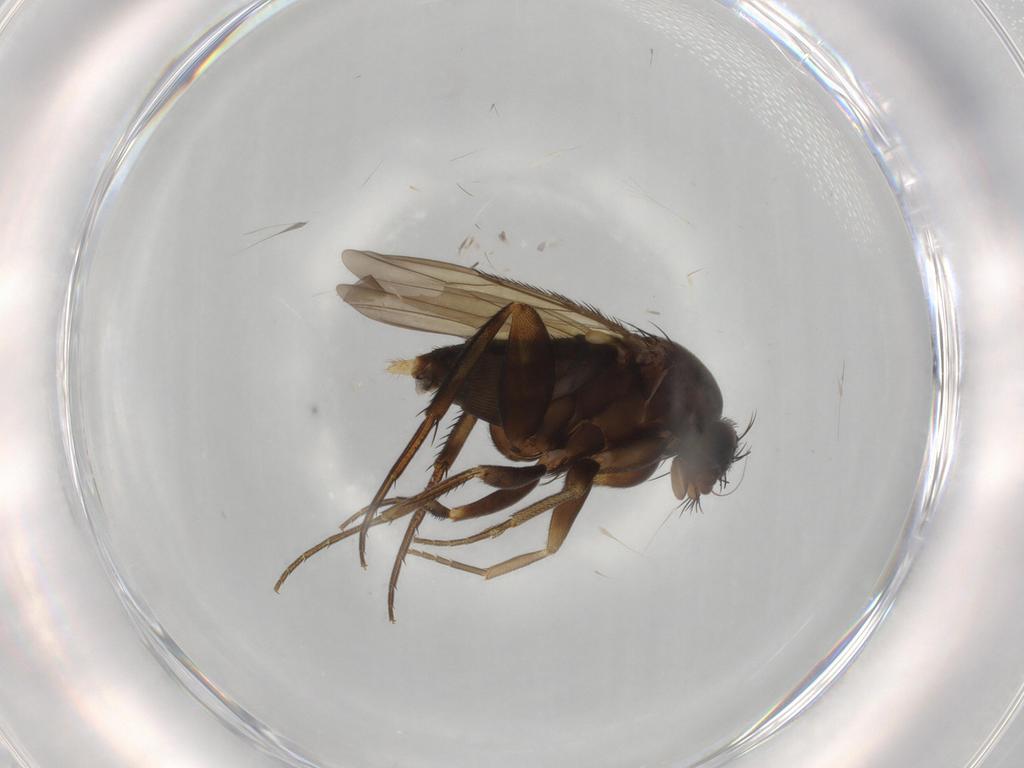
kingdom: Animalia
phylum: Arthropoda
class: Insecta
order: Diptera
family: Phoridae
